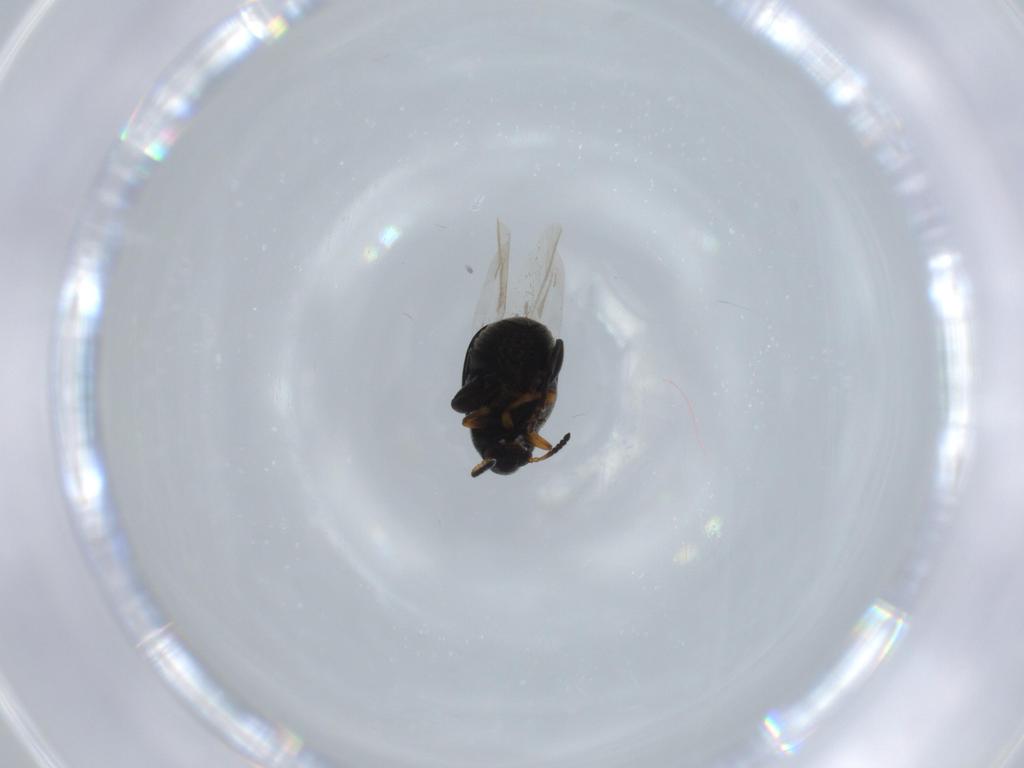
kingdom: Animalia
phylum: Arthropoda
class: Insecta
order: Coleoptera
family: Chrysomelidae
